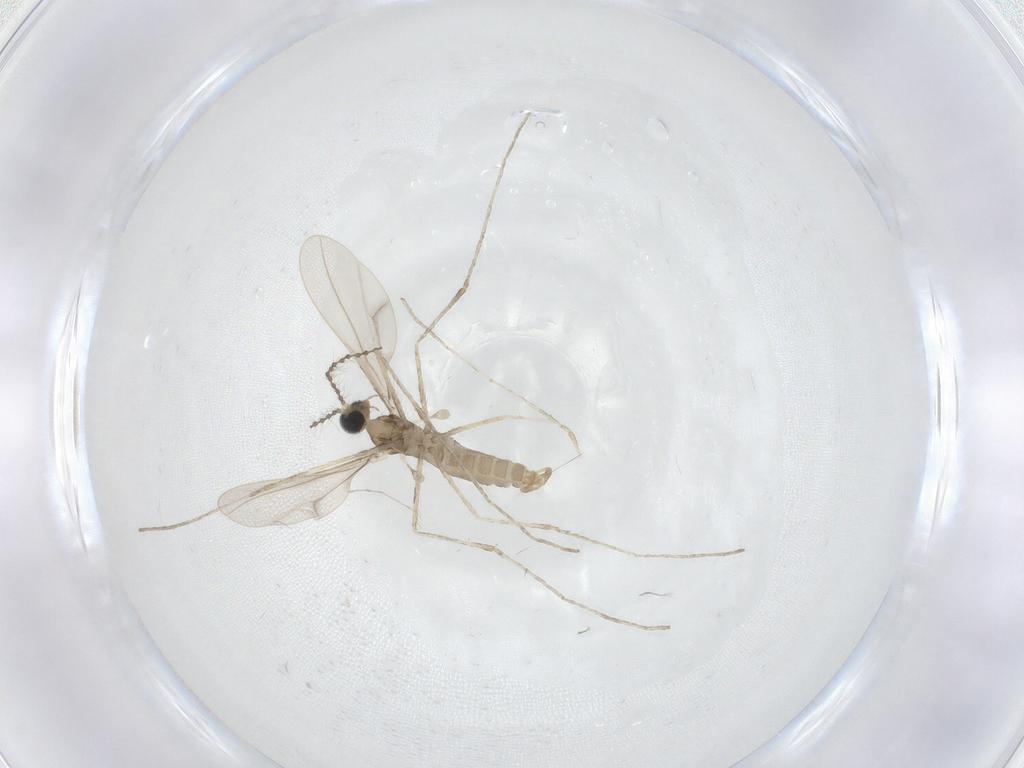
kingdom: Animalia
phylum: Arthropoda
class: Insecta
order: Diptera
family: Cecidomyiidae
